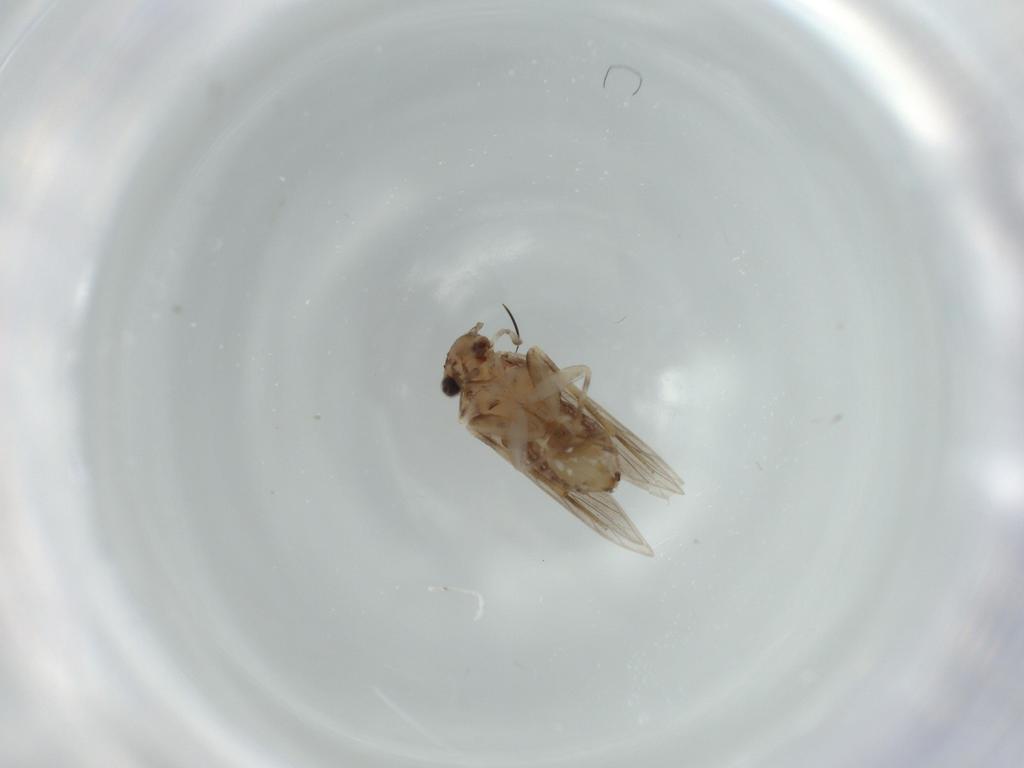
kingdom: Animalia
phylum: Arthropoda
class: Insecta
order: Psocodea
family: Lepidopsocidae
